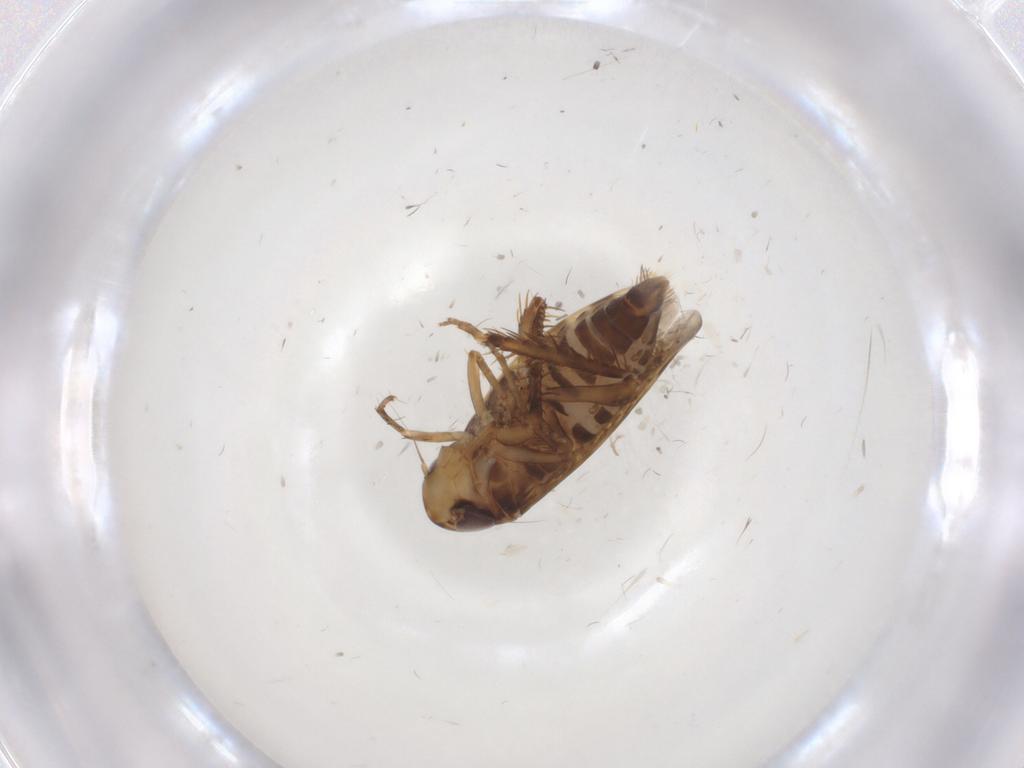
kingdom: Animalia
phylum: Arthropoda
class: Insecta
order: Hemiptera
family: Cicadellidae
